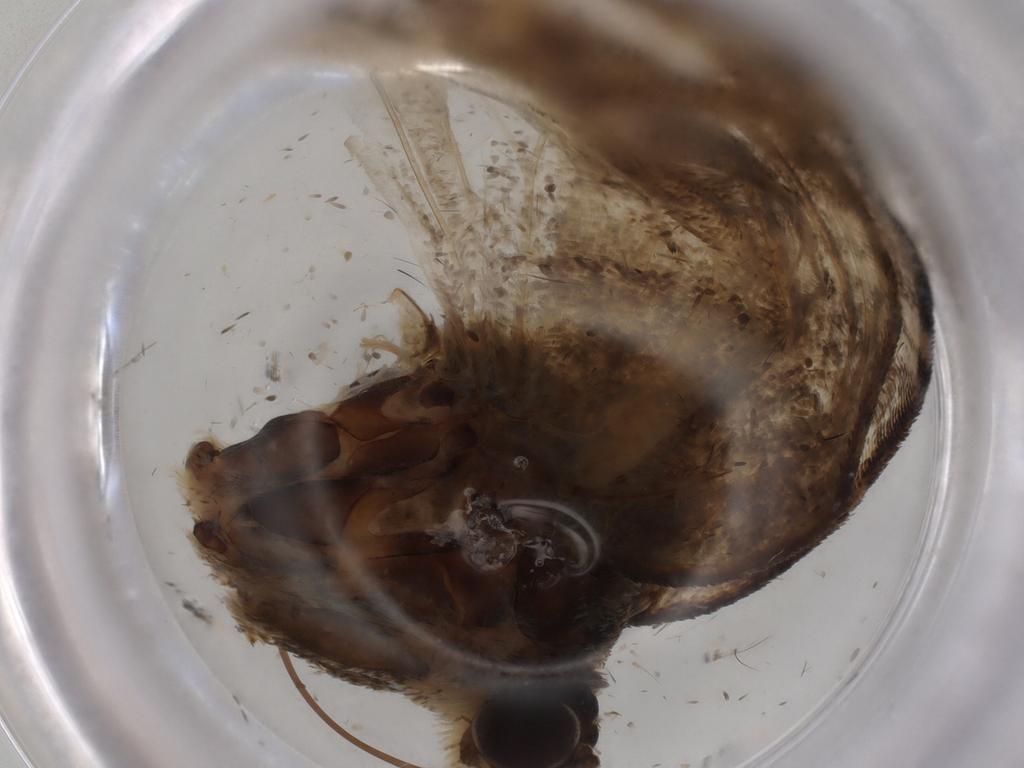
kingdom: Animalia
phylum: Arthropoda
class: Insecta
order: Lepidoptera
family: Geometridae
